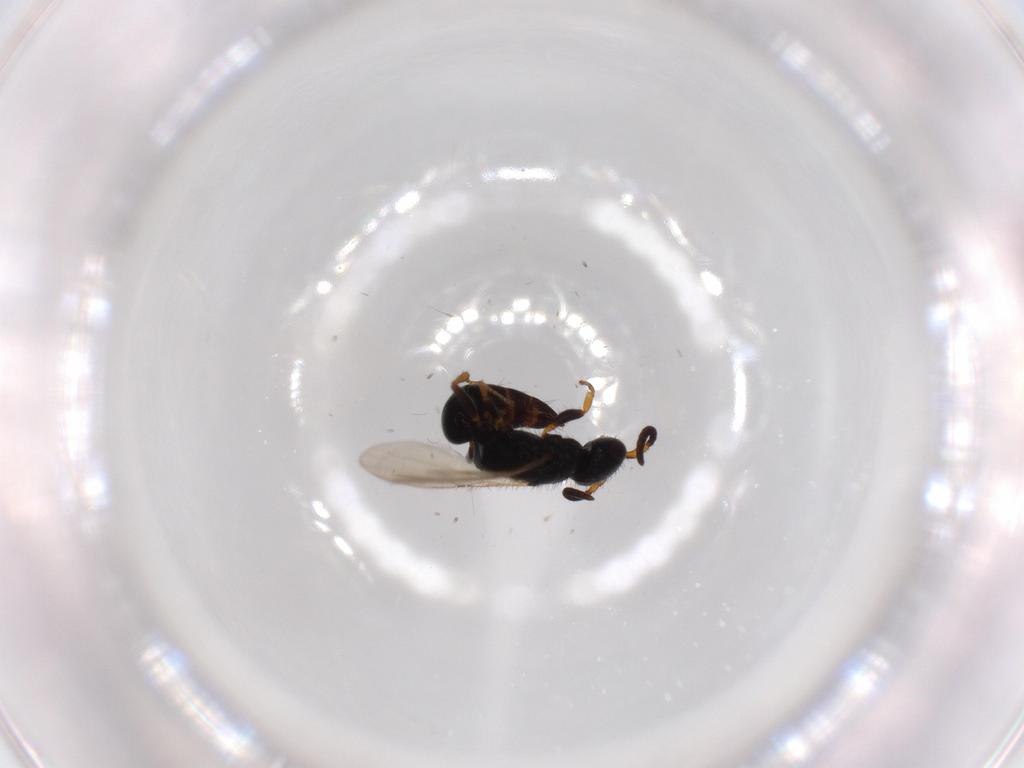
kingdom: Animalia
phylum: Arthropoda
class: Insecta
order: Hymenoptera
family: Bethylidae
